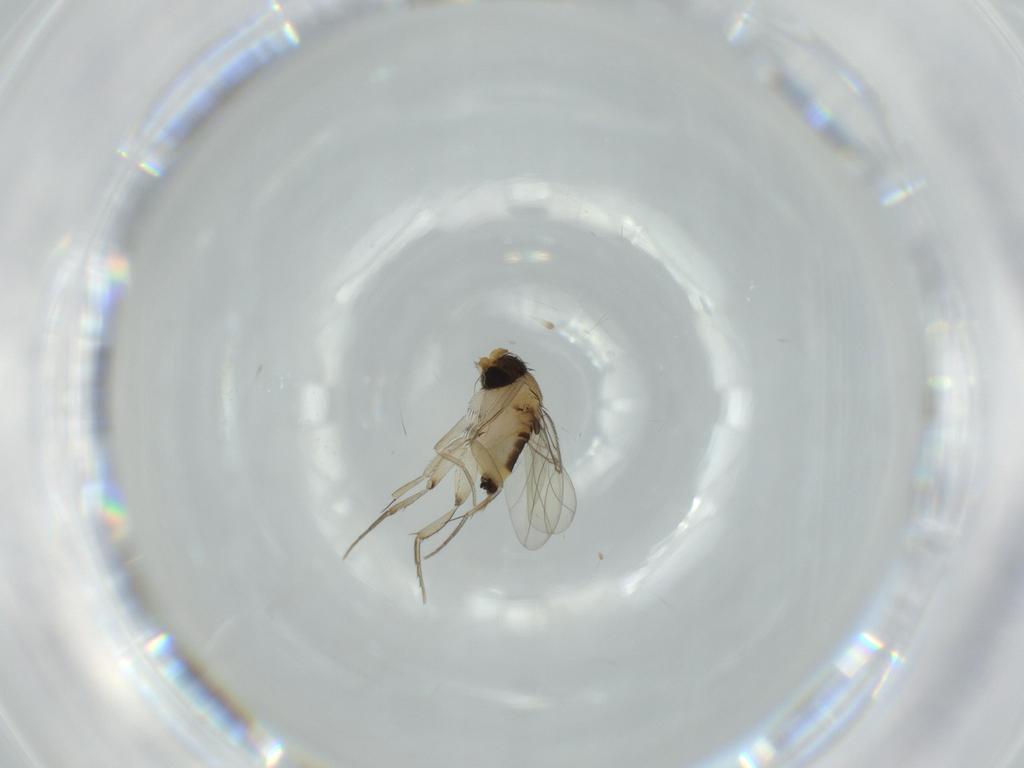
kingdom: Animalia
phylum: Arthropoda
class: Insecta
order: Diptera
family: Phoridae
